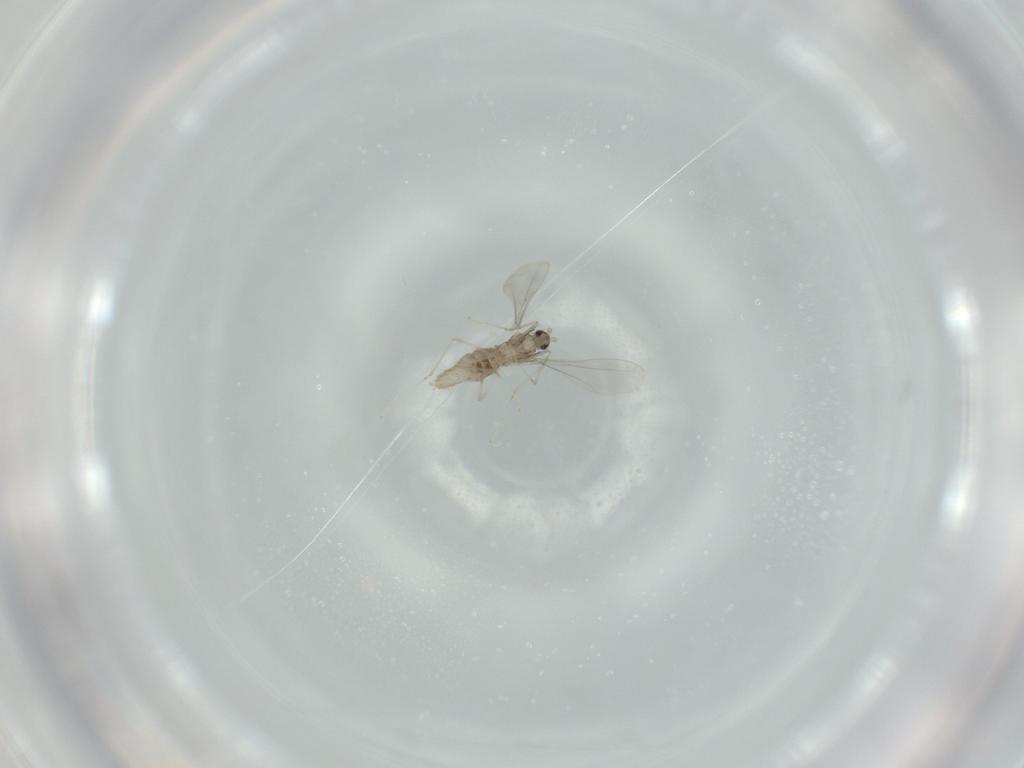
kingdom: Animalia
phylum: Arthropoda
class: Insecta
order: Diptera
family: Cecidomyiidae
